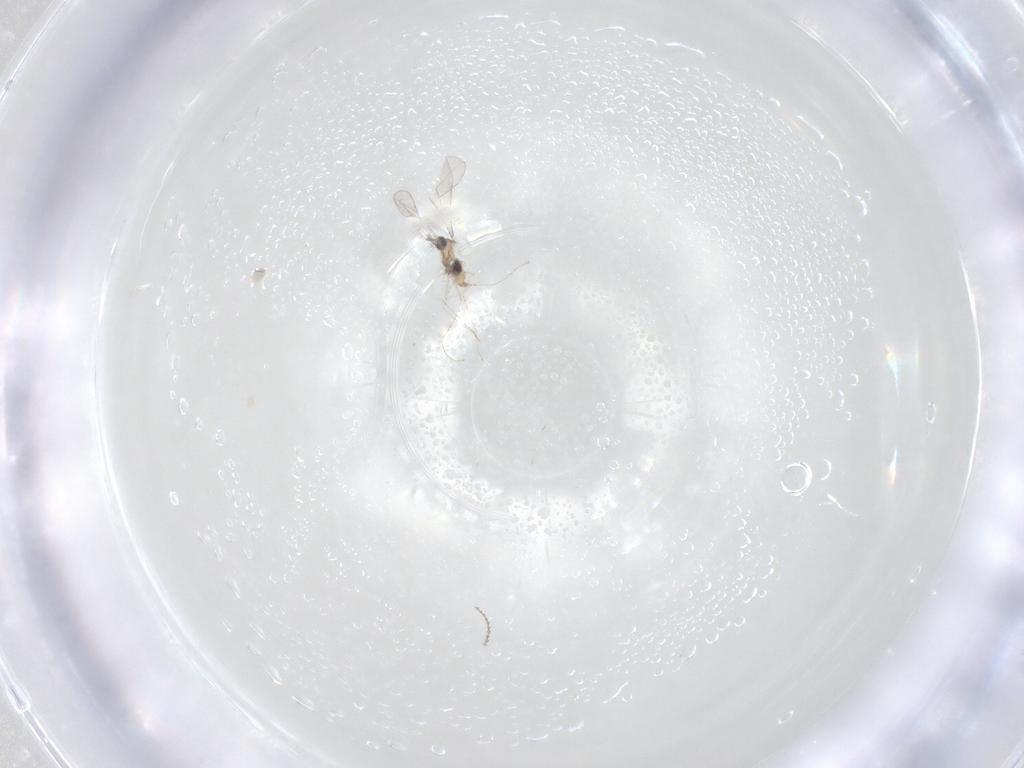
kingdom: Animalia
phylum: Arthropoda
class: Insecta
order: Diptera
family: Cecidomyiidae
